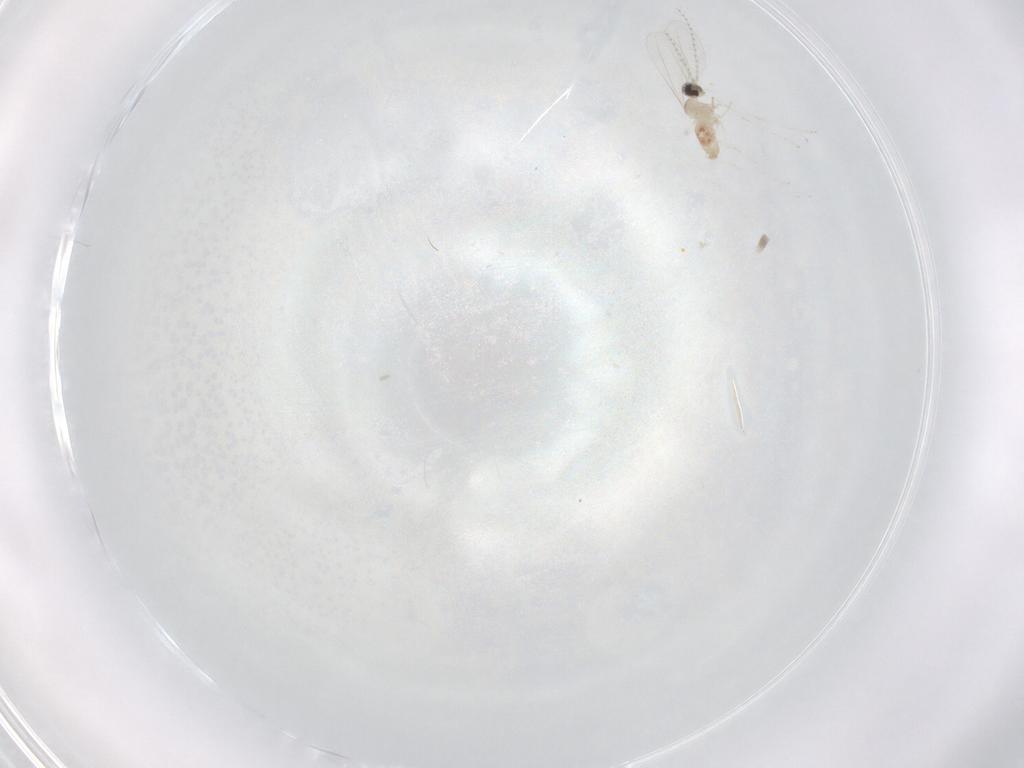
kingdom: Animalia
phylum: Arthropoda
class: Insecta
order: Diptera
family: Cecidomyiidae
